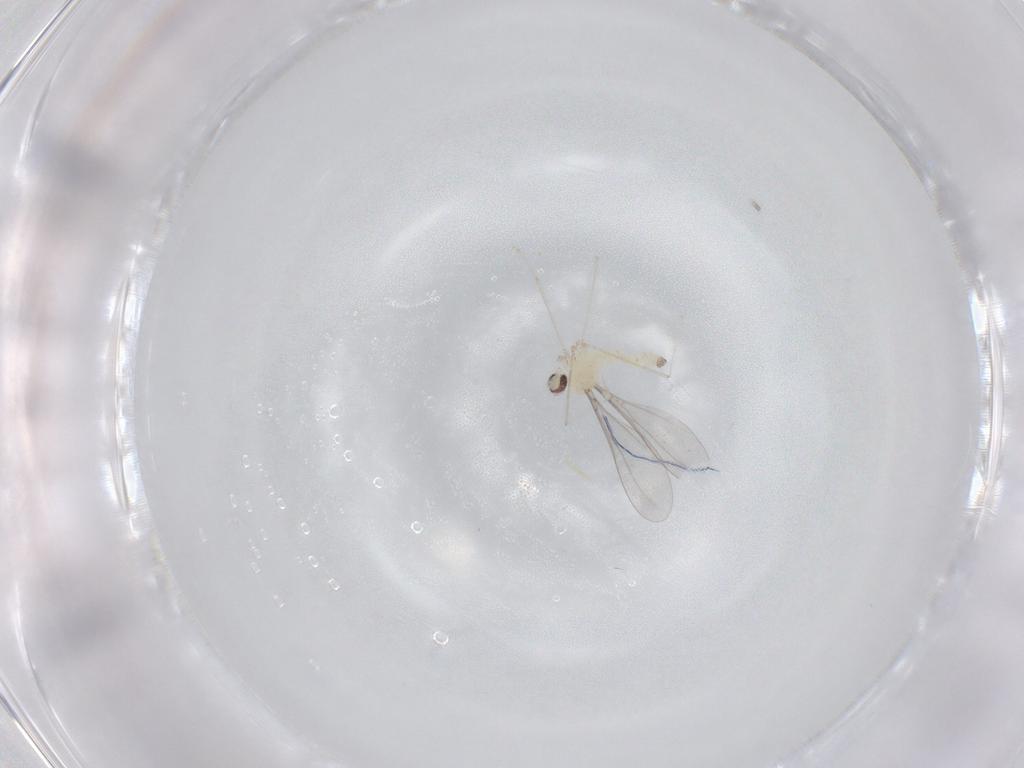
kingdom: Animalia
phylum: Arthropoda
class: Insecta
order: Diptera
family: Cecidomyiidae
